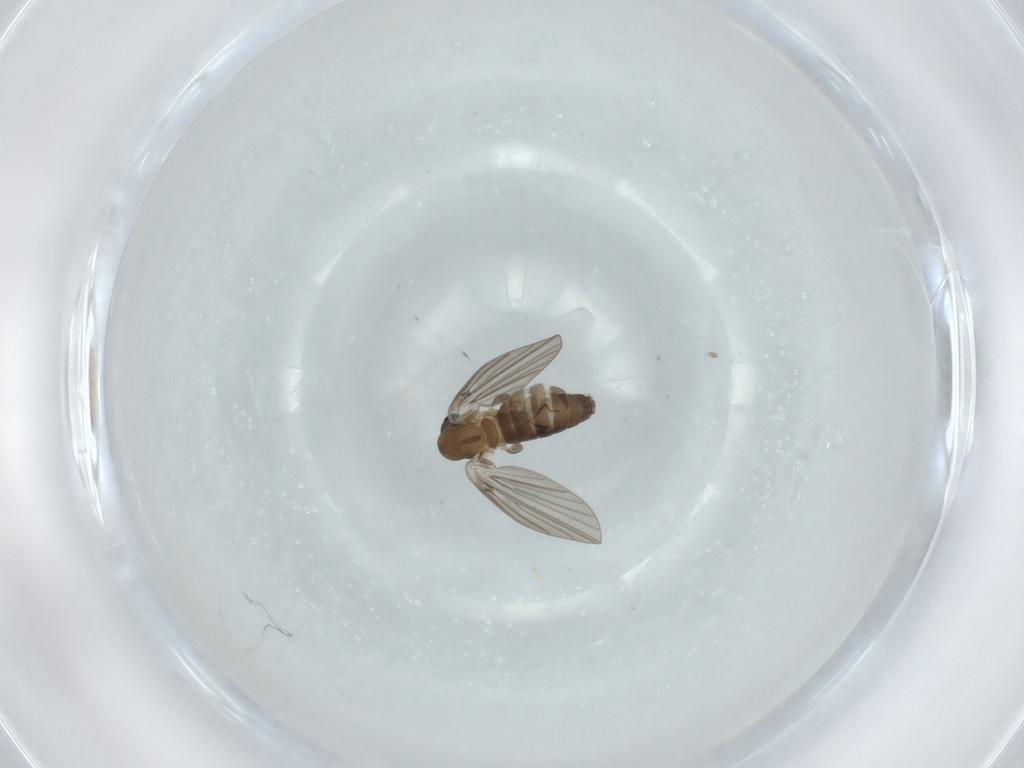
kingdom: Animalia
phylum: Arthropoda
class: Insecta
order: Diptera
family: Psychodidae
